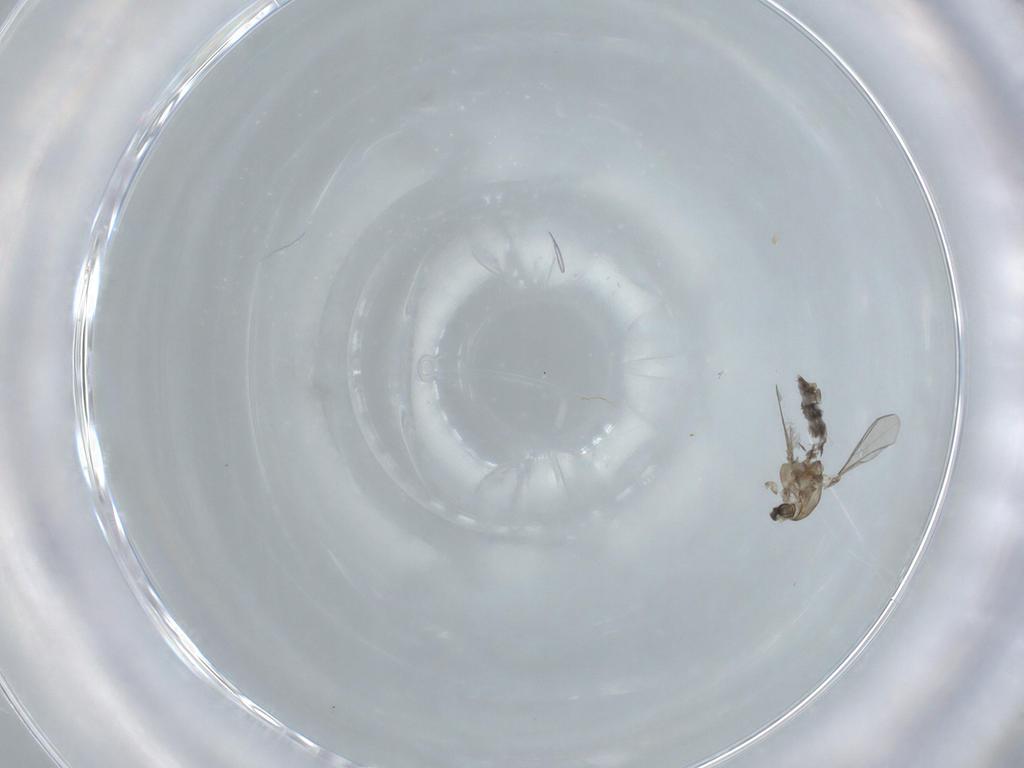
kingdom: Animalia
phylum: Arthropoda
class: Insecta
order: Diptera
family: Chironomidae
